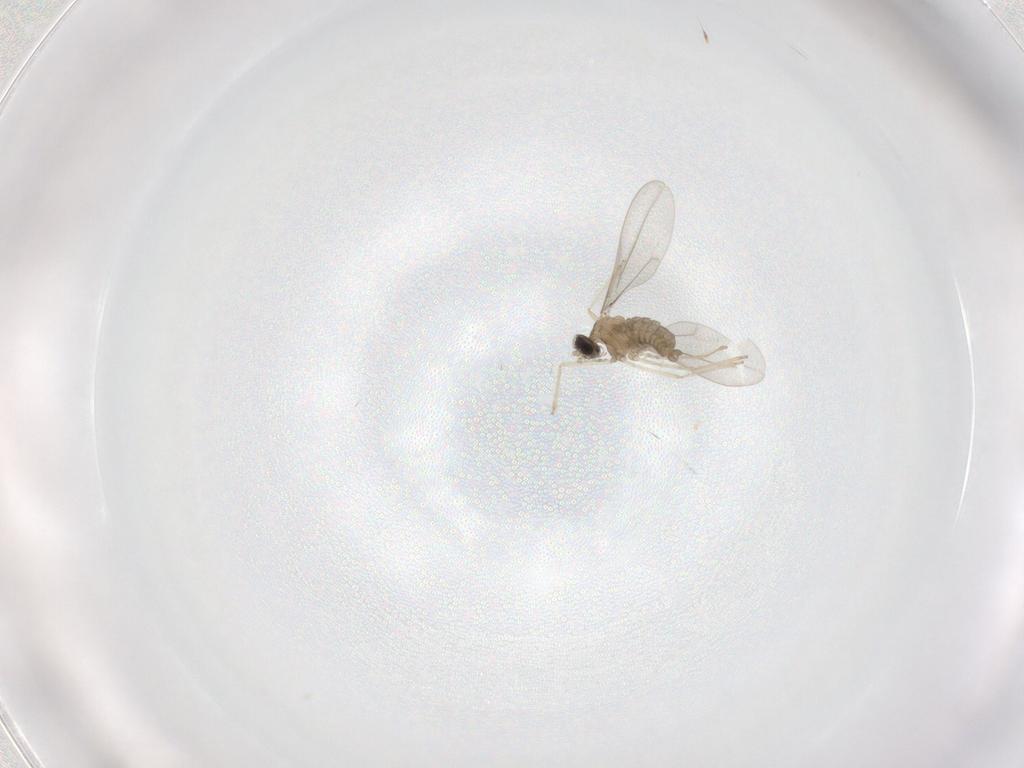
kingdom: Animalia
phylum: Arthropoda
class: Insecta
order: Diptera
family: Cecidomyiidae
